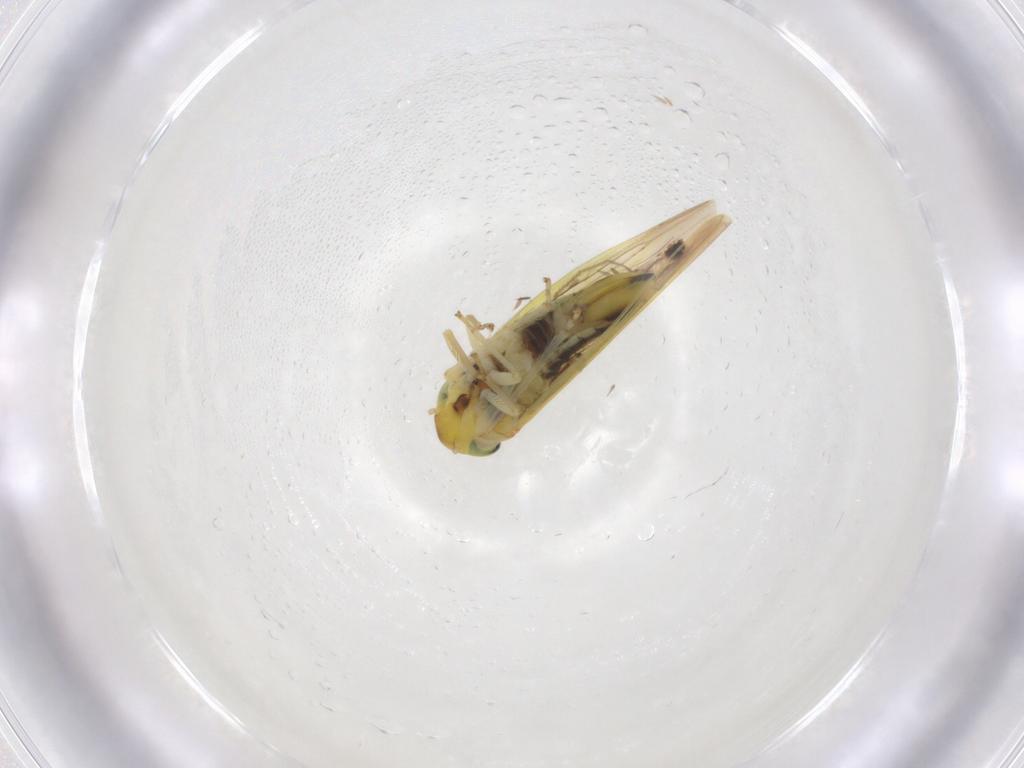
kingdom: Animalia
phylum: Arthropoda
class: Insecta
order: Hemiptera
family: Cicadellidae
